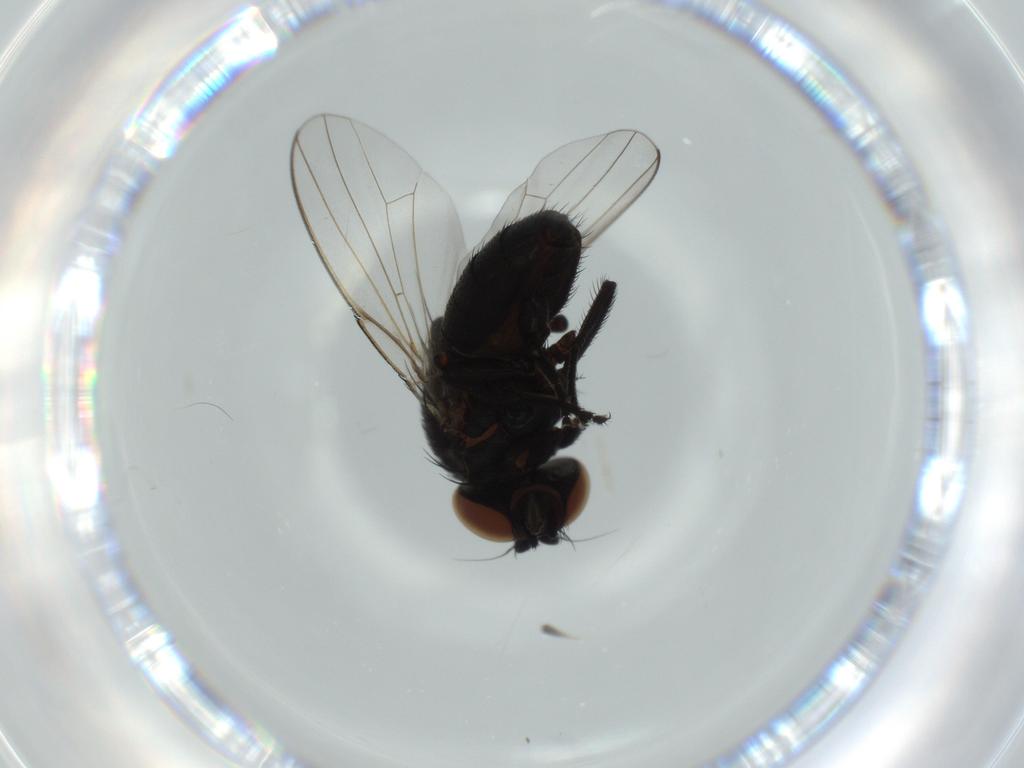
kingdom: Animalia
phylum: Arthropoda
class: Insecta
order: Diptera
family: Milichiidae
